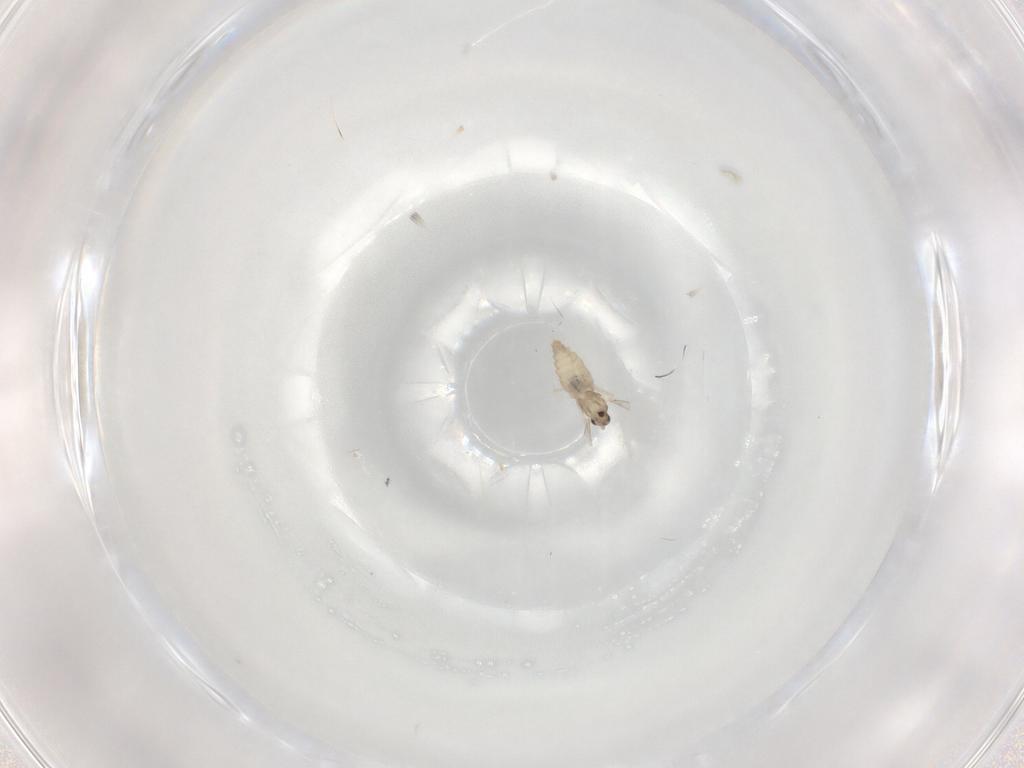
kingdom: Animalia
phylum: Arthropoda
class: Insecta
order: Diptera
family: Cecidomyiidae
